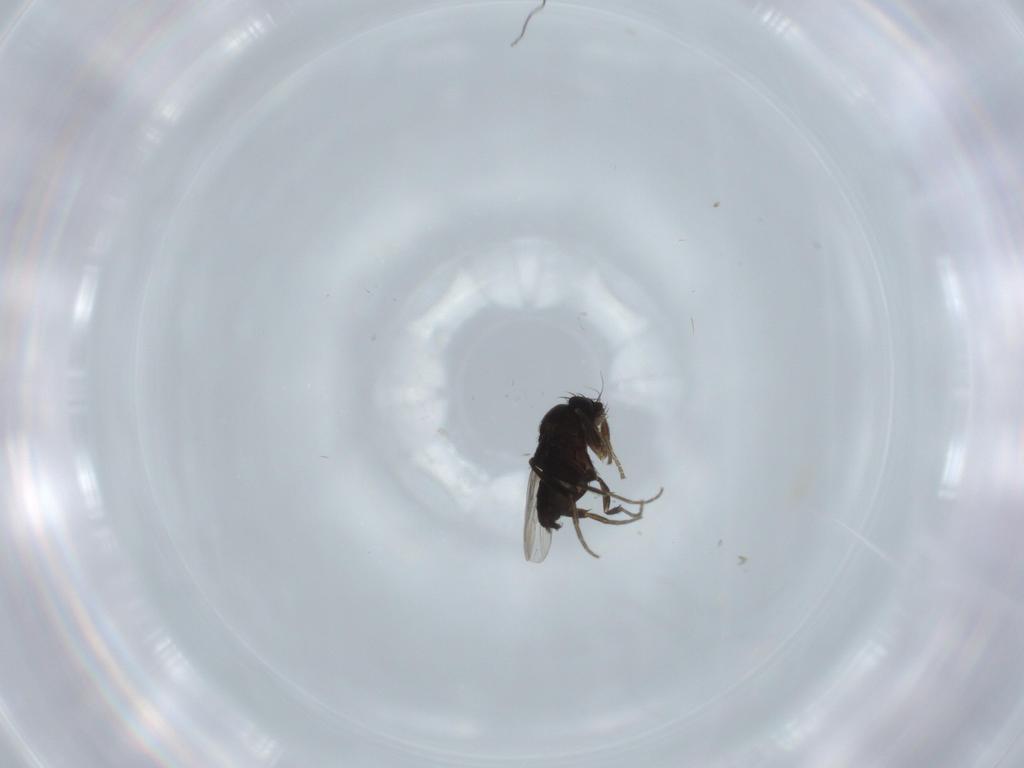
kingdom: Animalia
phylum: Arthropoda
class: Insecta
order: Diptera
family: Phoridae
